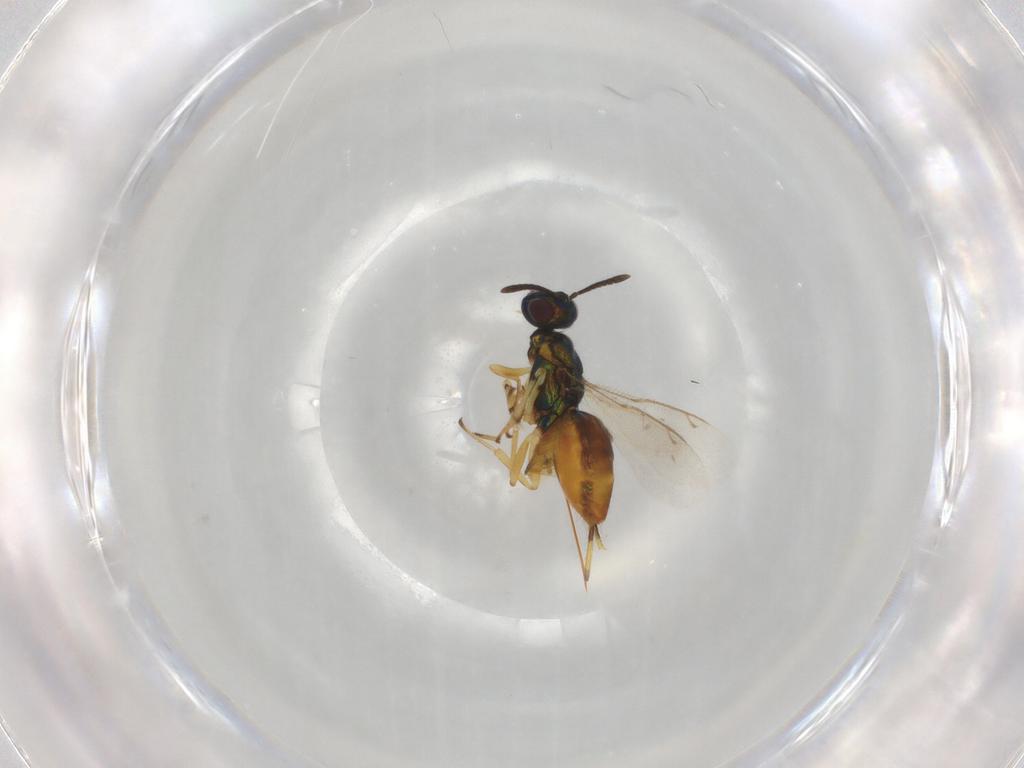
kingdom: Animalia
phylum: Arthropoda
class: Insecta
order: Hymenoptera
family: Eupelmidae
